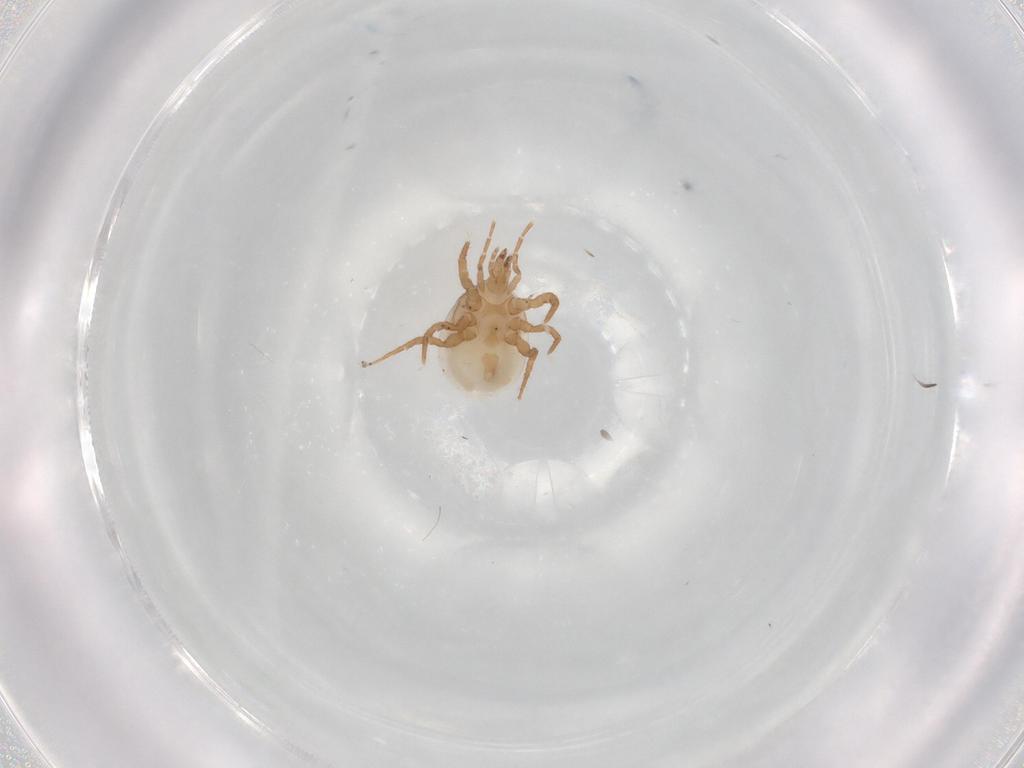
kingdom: Animalia
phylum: Arthropoda
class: Arachnida
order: Mesostigmata
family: Macrochelidae
